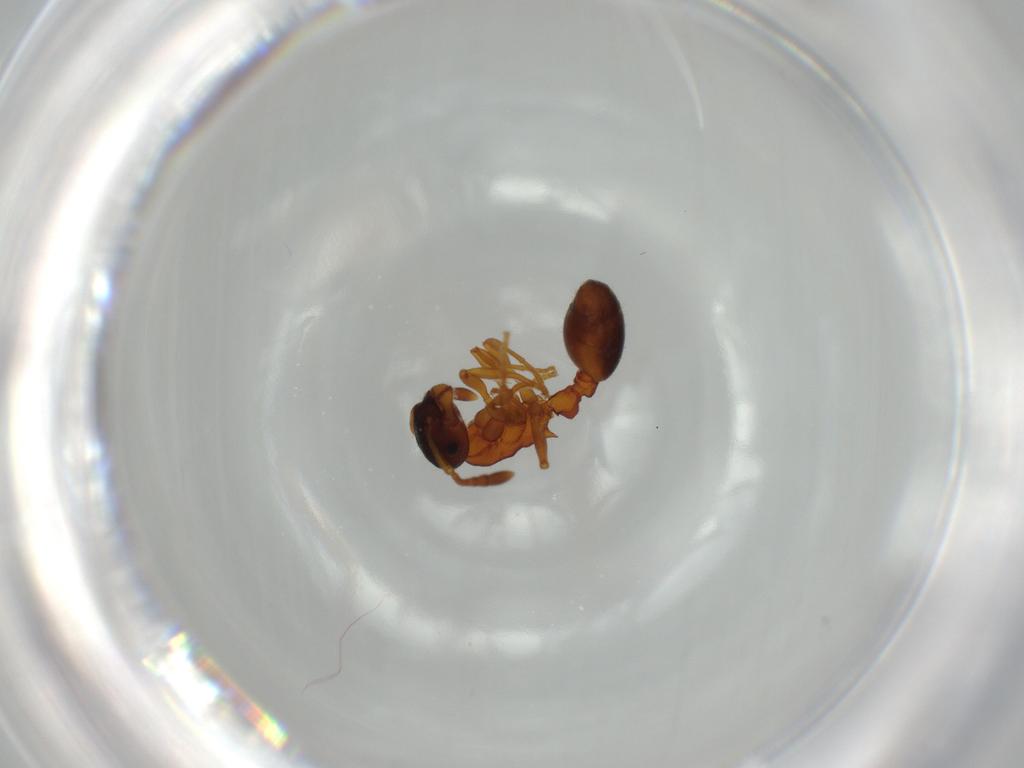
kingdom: Animalia
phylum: Arthropoda
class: Insecta
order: Hymenoptera
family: Formicidae
